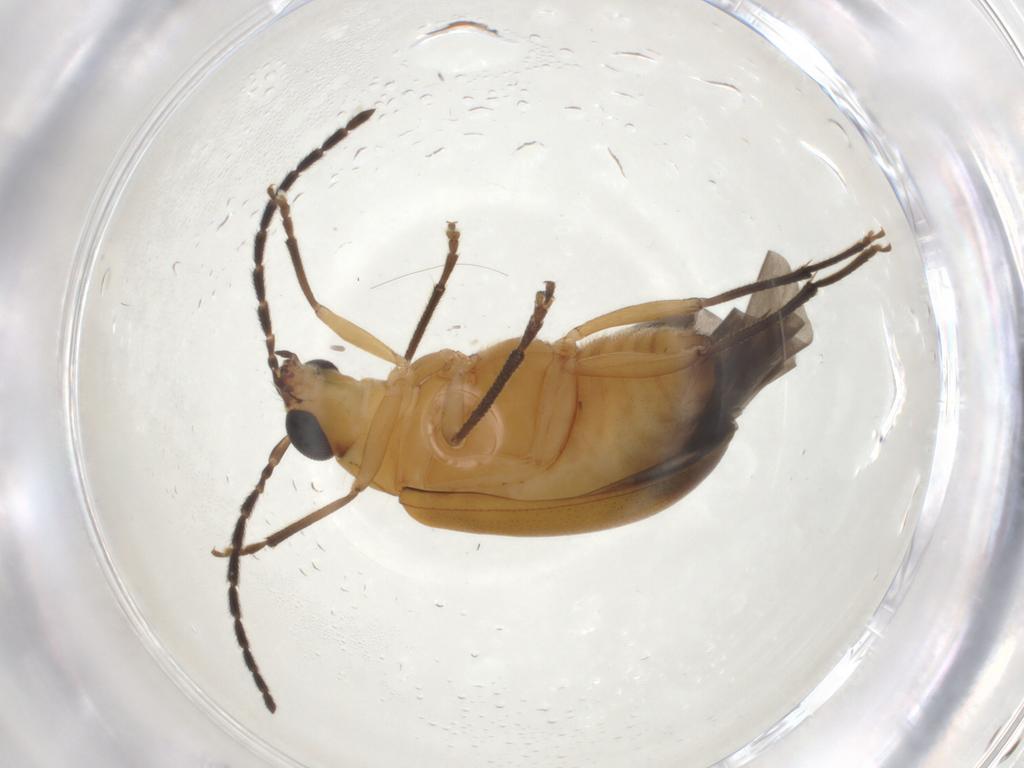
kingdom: Animalia
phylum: Arthropoda
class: Insecta
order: Coleoptera
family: Chrysomelidae
